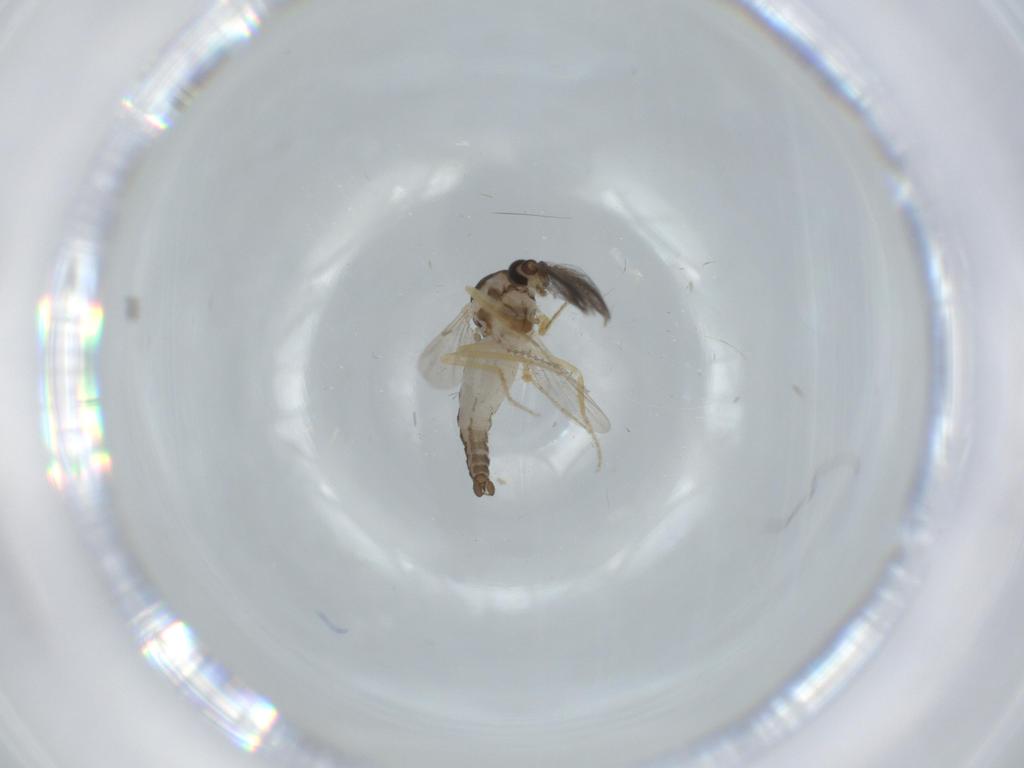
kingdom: Animalia
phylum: Arthropoda
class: Insecta
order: Diptera
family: Ceratopogonidae
